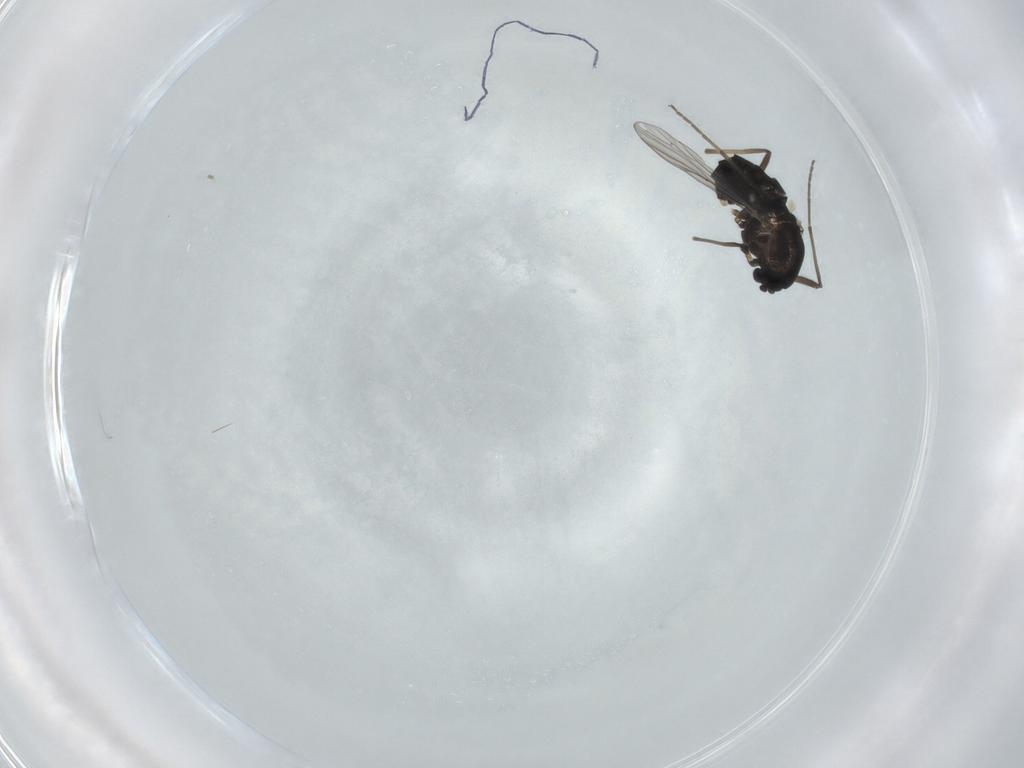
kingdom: Animalia
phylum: Arthropoda
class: Insecta
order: Diptera
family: Chironomidae
